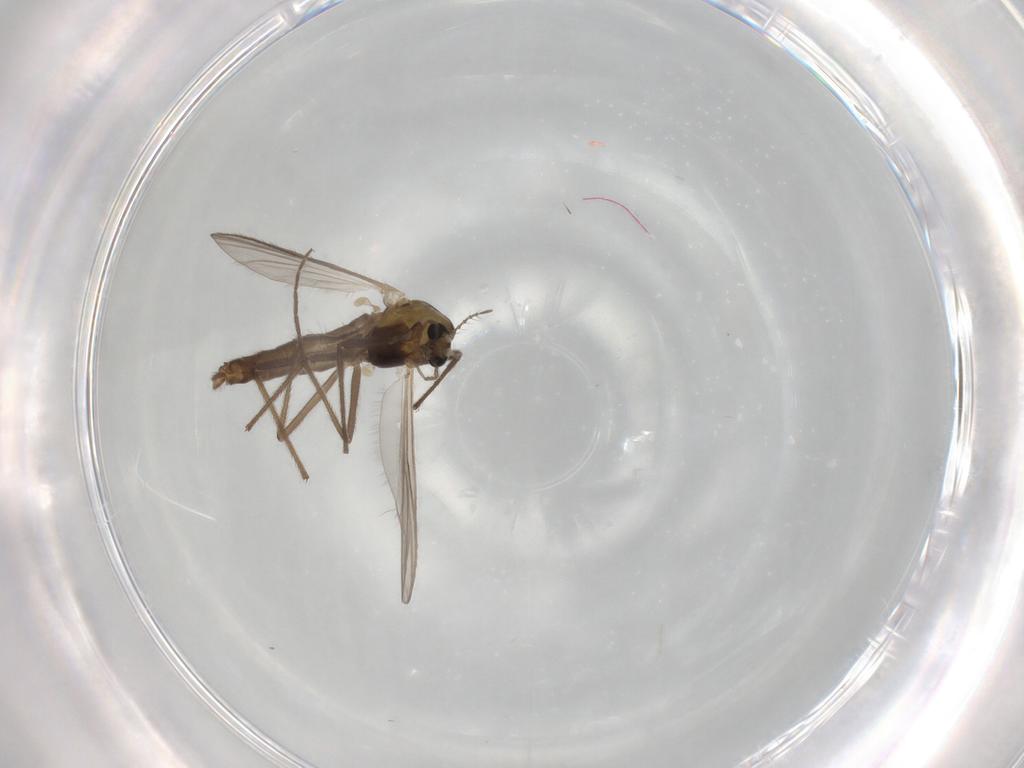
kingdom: Animalia
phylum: Arthropoda
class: Insecta
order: Diptera
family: Chironomidae
